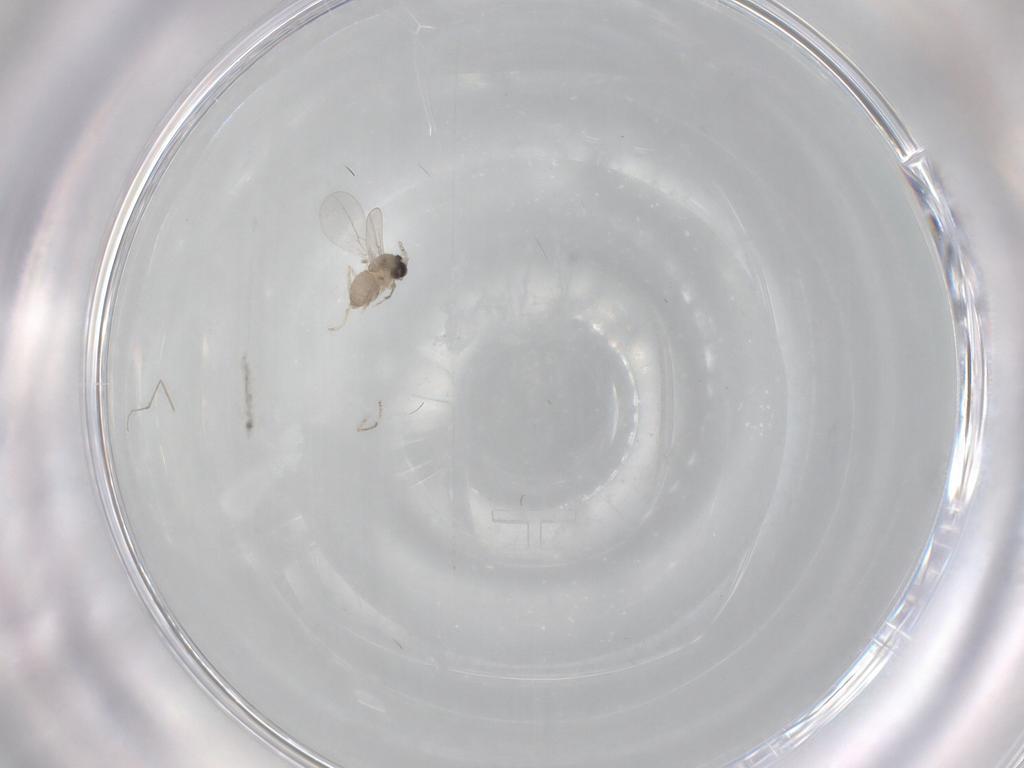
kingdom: Animalia
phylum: Arthropoda
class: Insecta
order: Diptera
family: Cecidomyiidae
